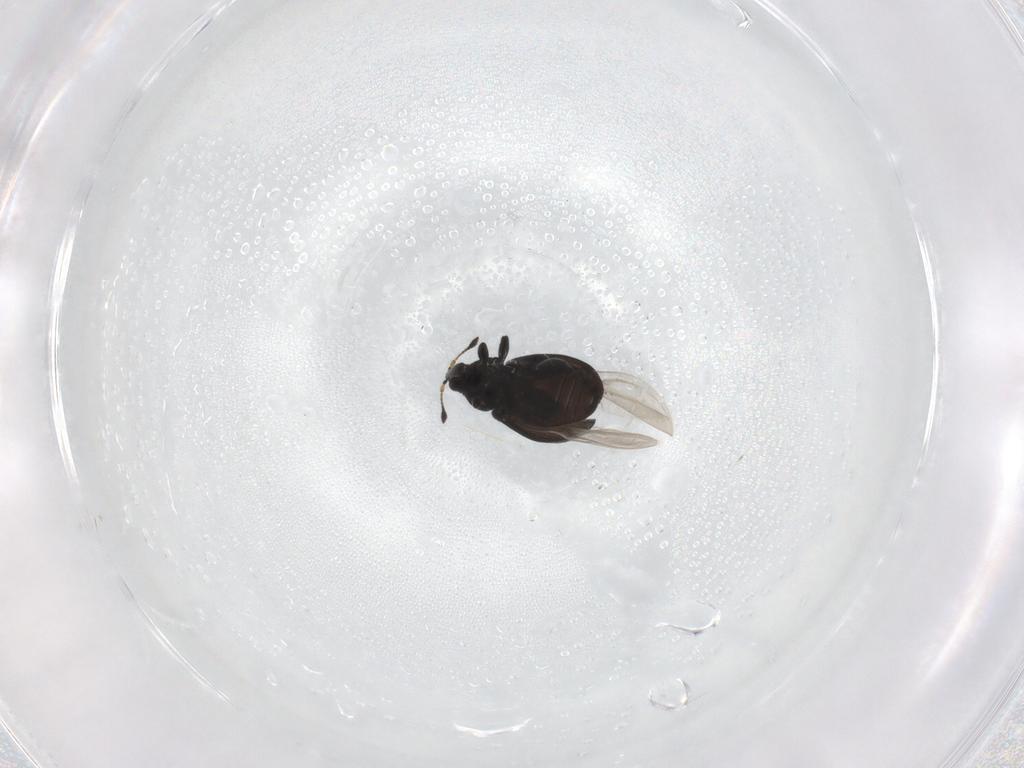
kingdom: Animalia
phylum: Arthropoda
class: Insecta
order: Coleoptera
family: Curculionidae
